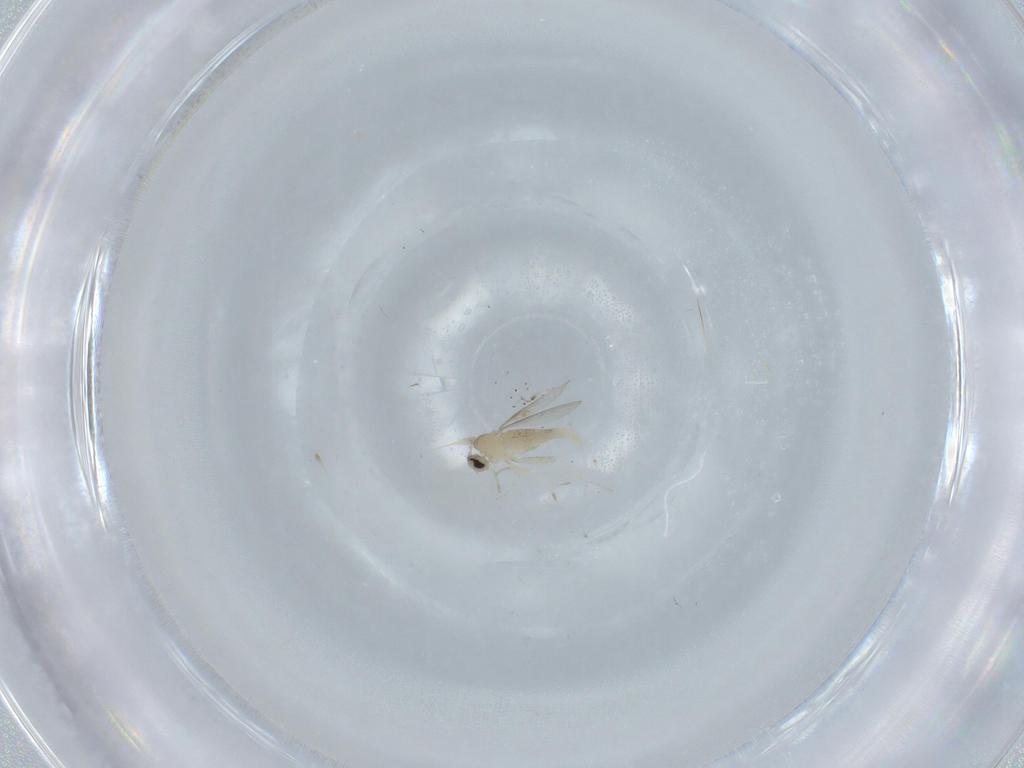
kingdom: Animalia
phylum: Arthropoda
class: Insecta
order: Diptera
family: Cecidomyiidae
